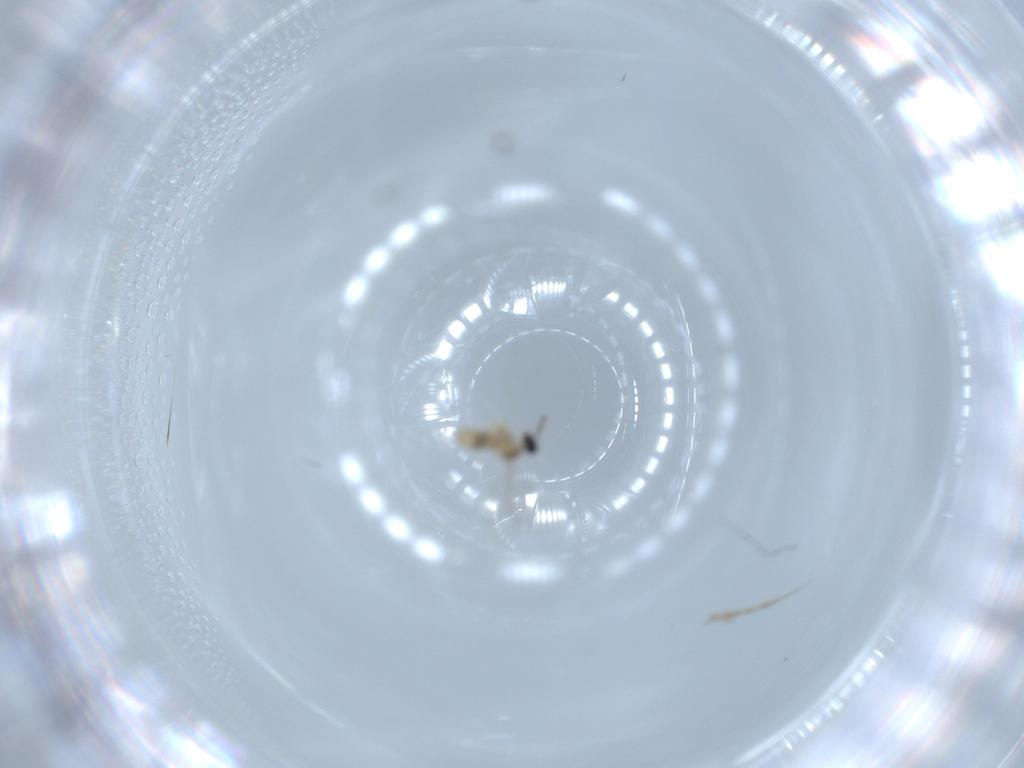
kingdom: Animalia
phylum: Arthropoda
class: Insecta
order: Diptera
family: Cecidomyiidae
